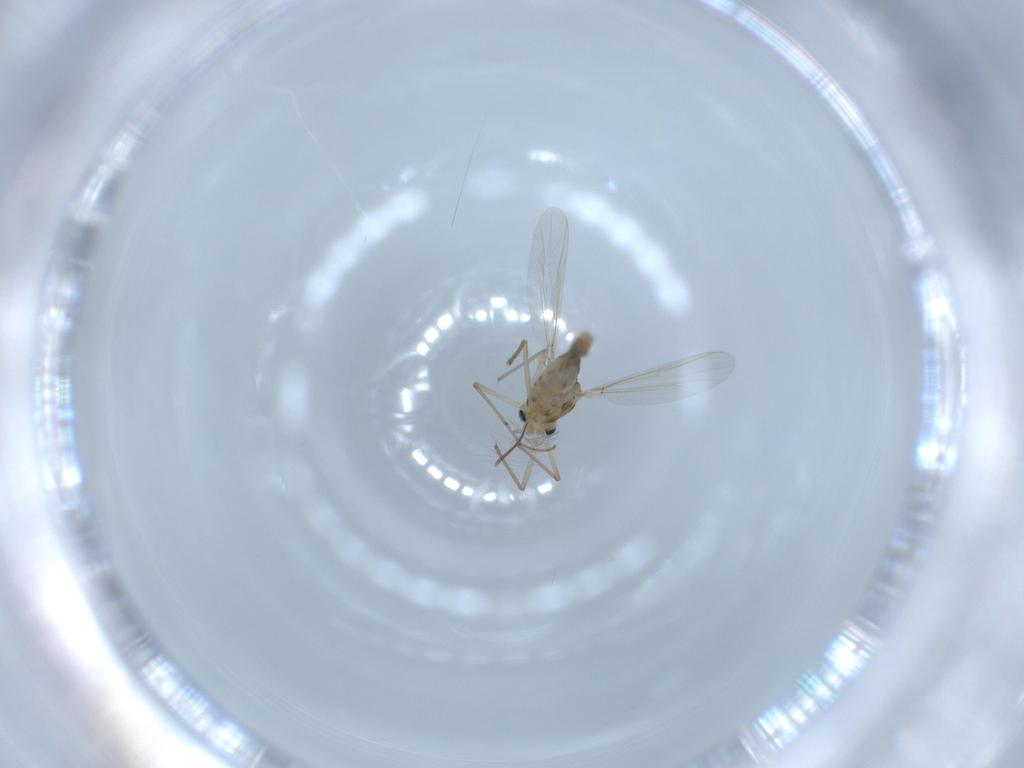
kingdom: Animalia
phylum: Arthropoda
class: Insecta
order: Diptera
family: Chironomidae
